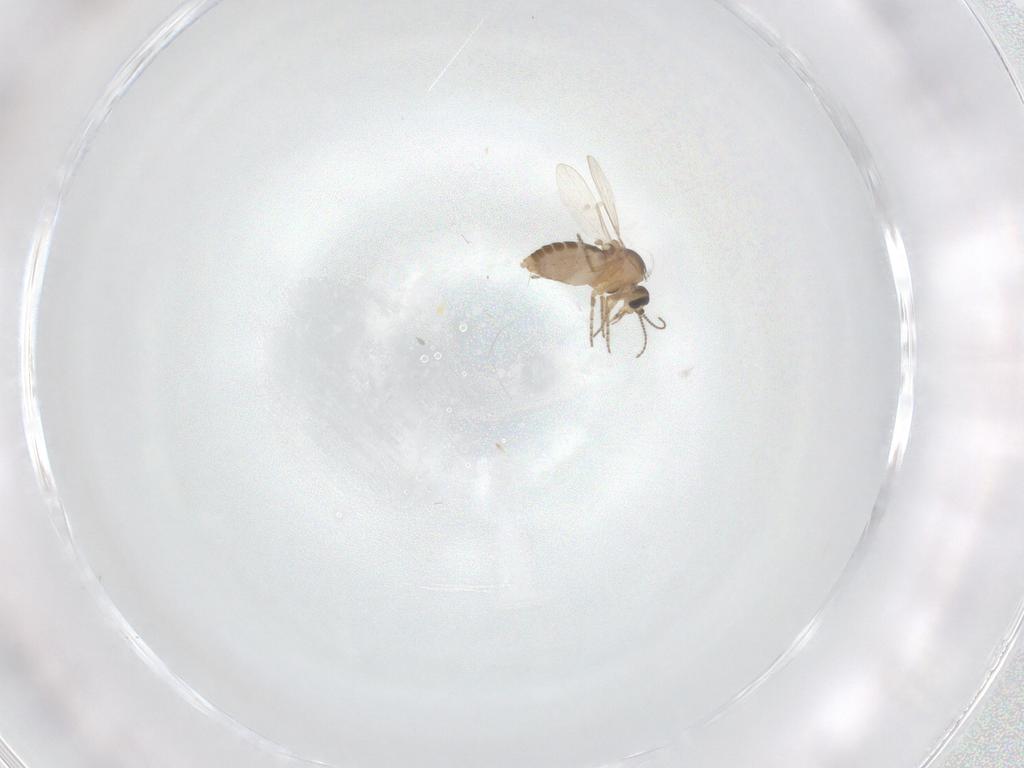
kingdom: Animalia
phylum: Arthropoda
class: Insecta
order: Diptera
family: Ceratopogonidae
